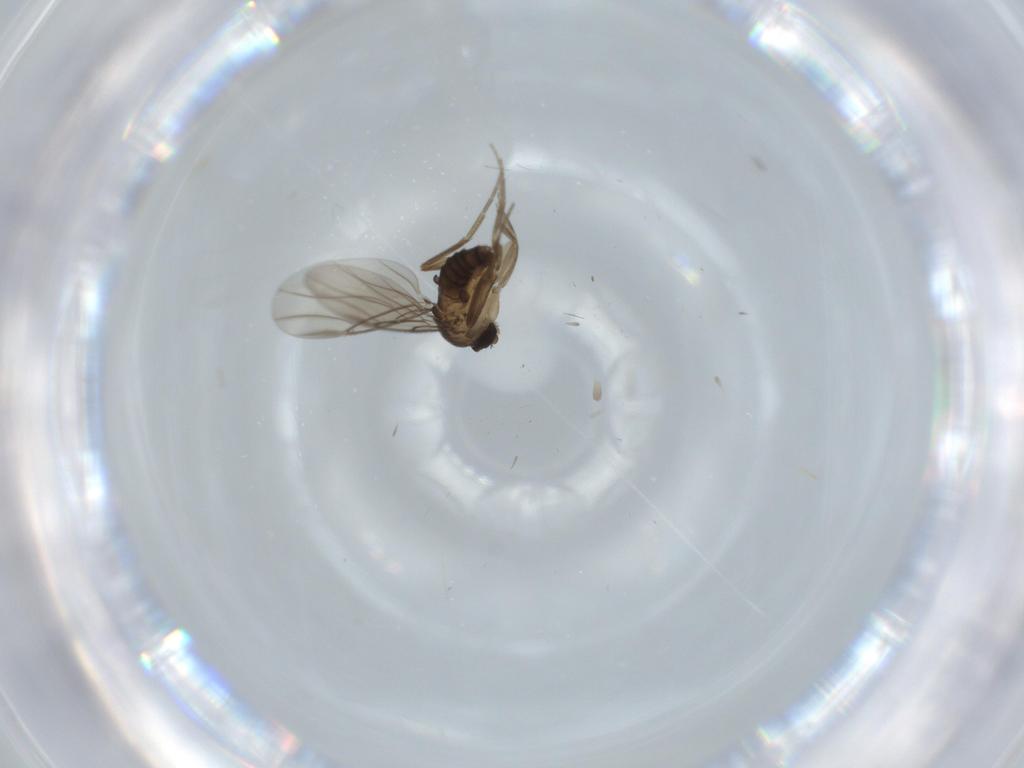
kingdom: Animalia
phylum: Arthropoda
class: Insecta
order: Diptera
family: Phoridae
